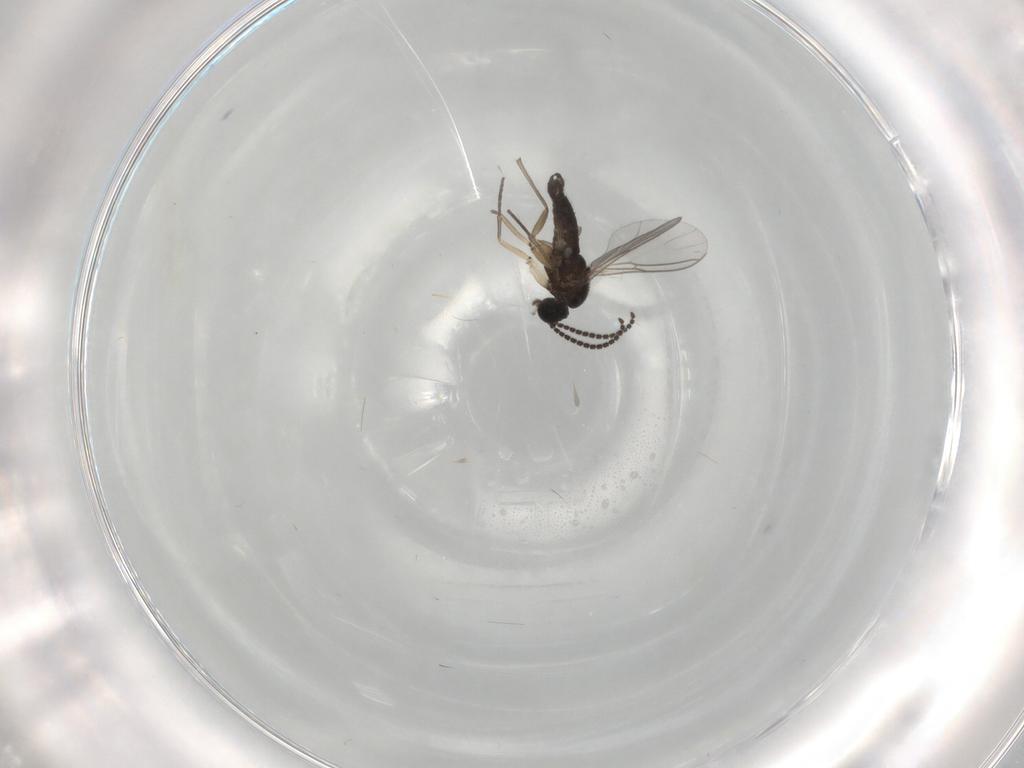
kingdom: Animalia
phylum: Arthropoda
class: Insecta
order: Diptera
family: Sciaridae
